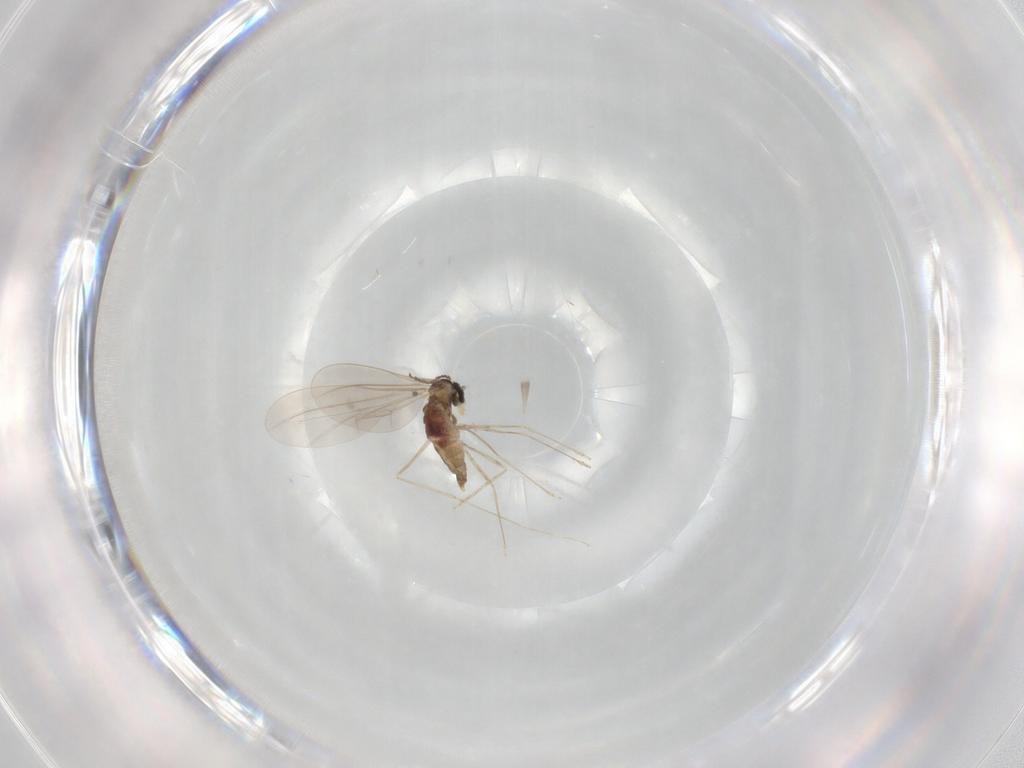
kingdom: Animalia
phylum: Arthropoda
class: Insecta
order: Diptera
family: Cecidomyiidae
